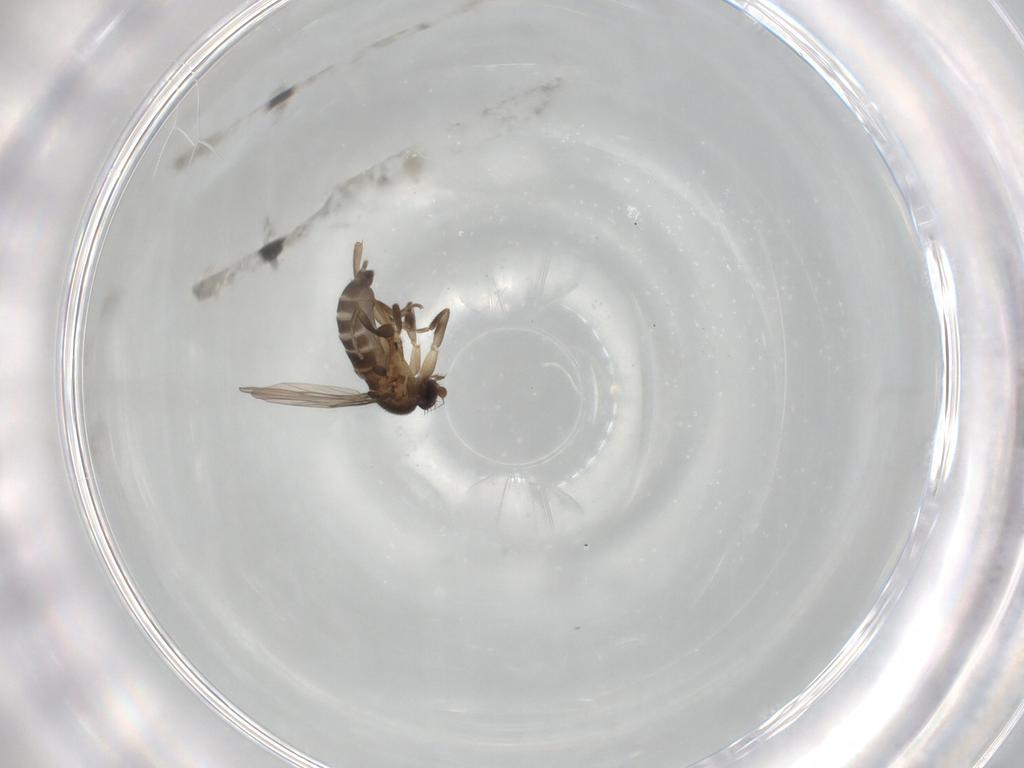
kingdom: Animalia
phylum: Arthropoda
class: Insecta
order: Diptera
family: Phoridae
